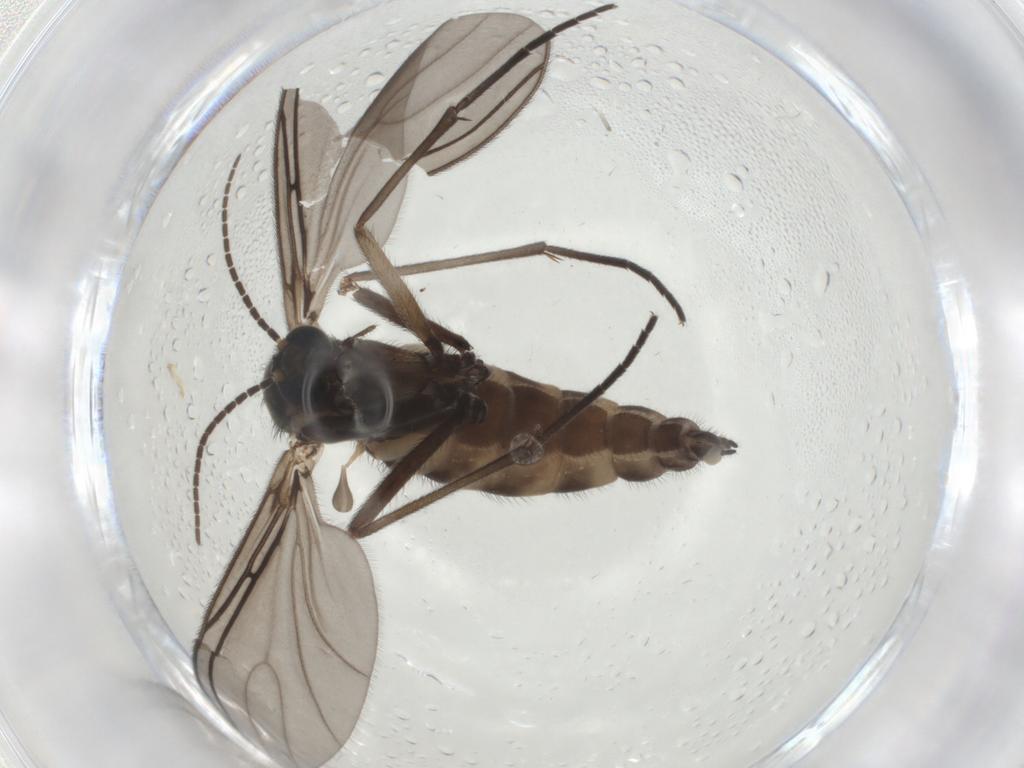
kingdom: Animalia
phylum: Arthropoda
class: Insecta
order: Diptera
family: Sciaridae
